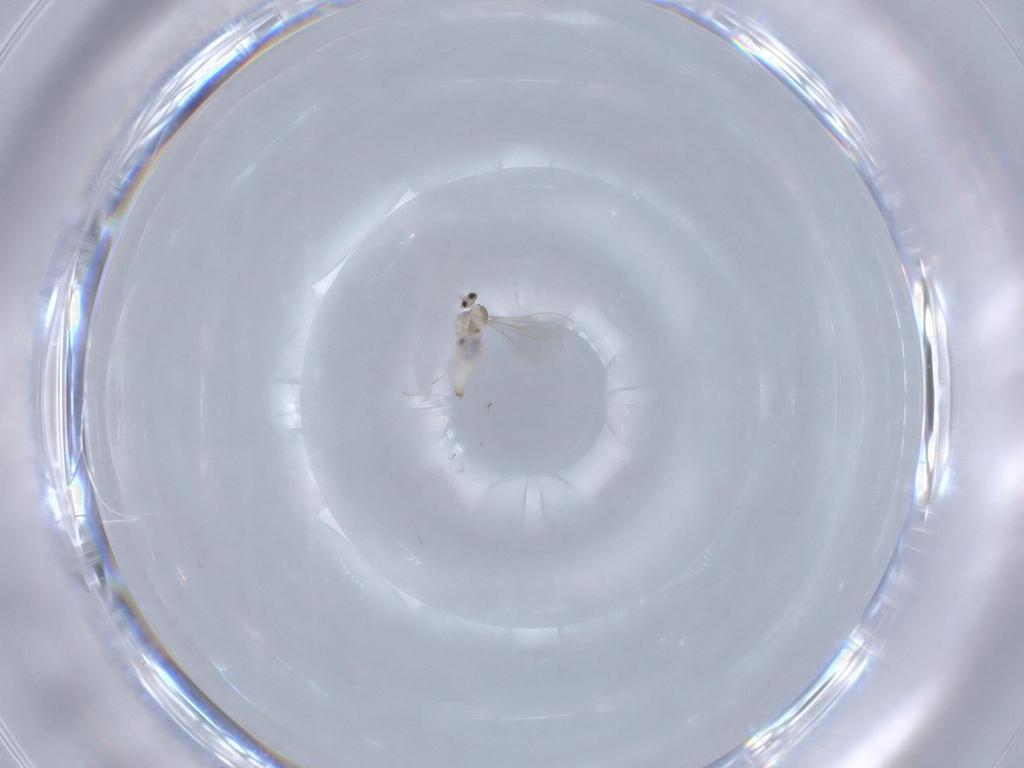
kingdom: Animalia
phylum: Arthropoda
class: Insecta
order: Diptera
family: Cecidomyiidae
